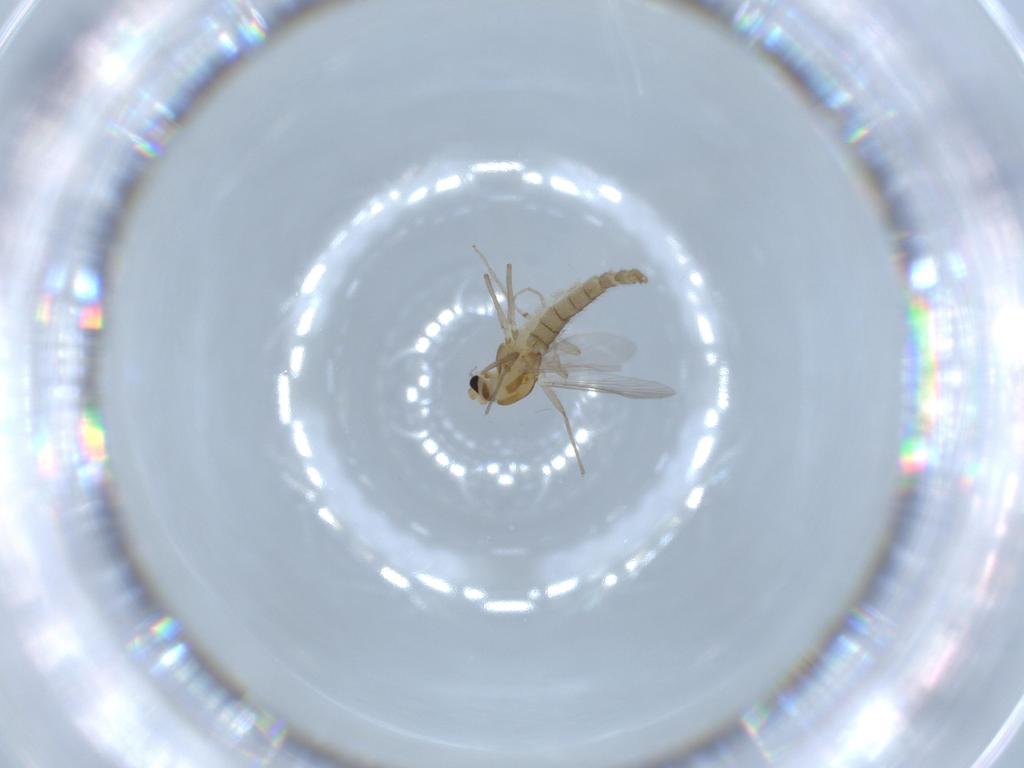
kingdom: Animalia
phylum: Arthropoda
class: Insecta
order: Diptera
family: Chironomidae
